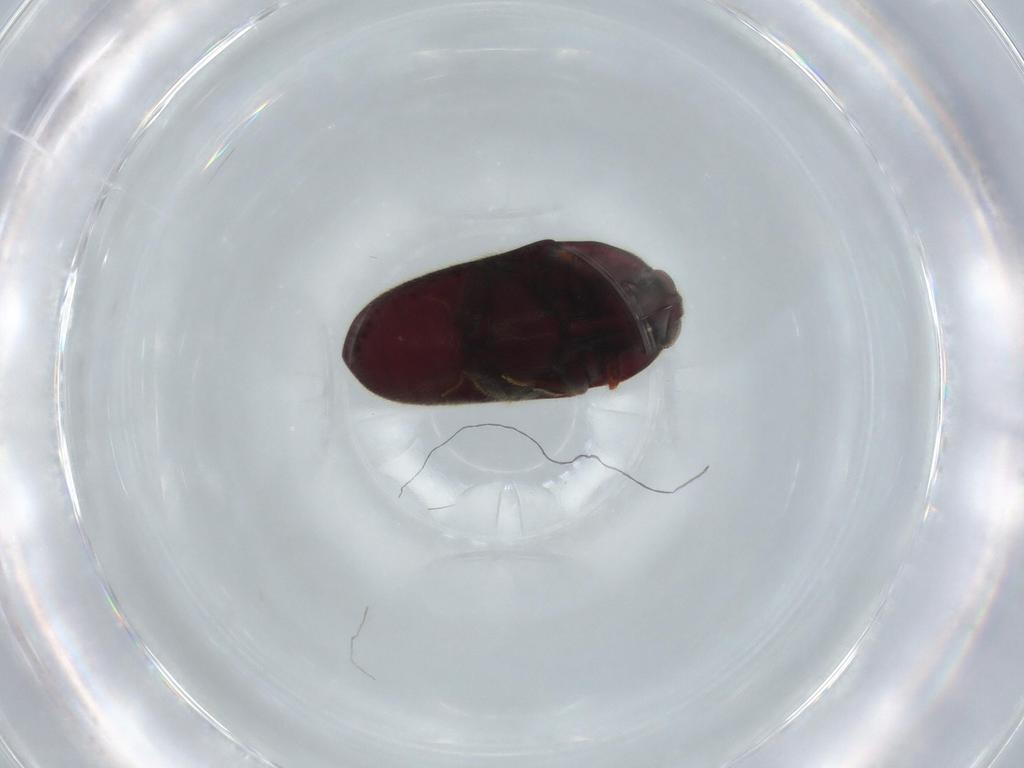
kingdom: Animalia
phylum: Arthropoda
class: Insecta
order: Coleoptera
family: Throscidae
